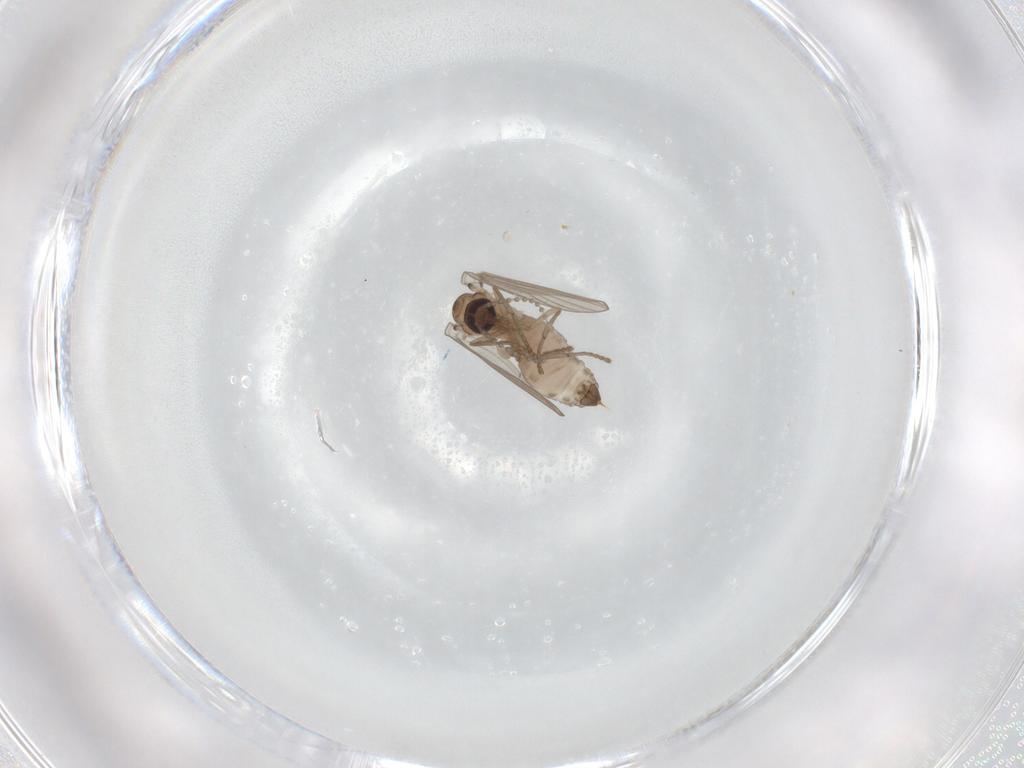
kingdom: Animalia
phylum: Arthropoda
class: Insecta
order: Diptera
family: Psychodidae
